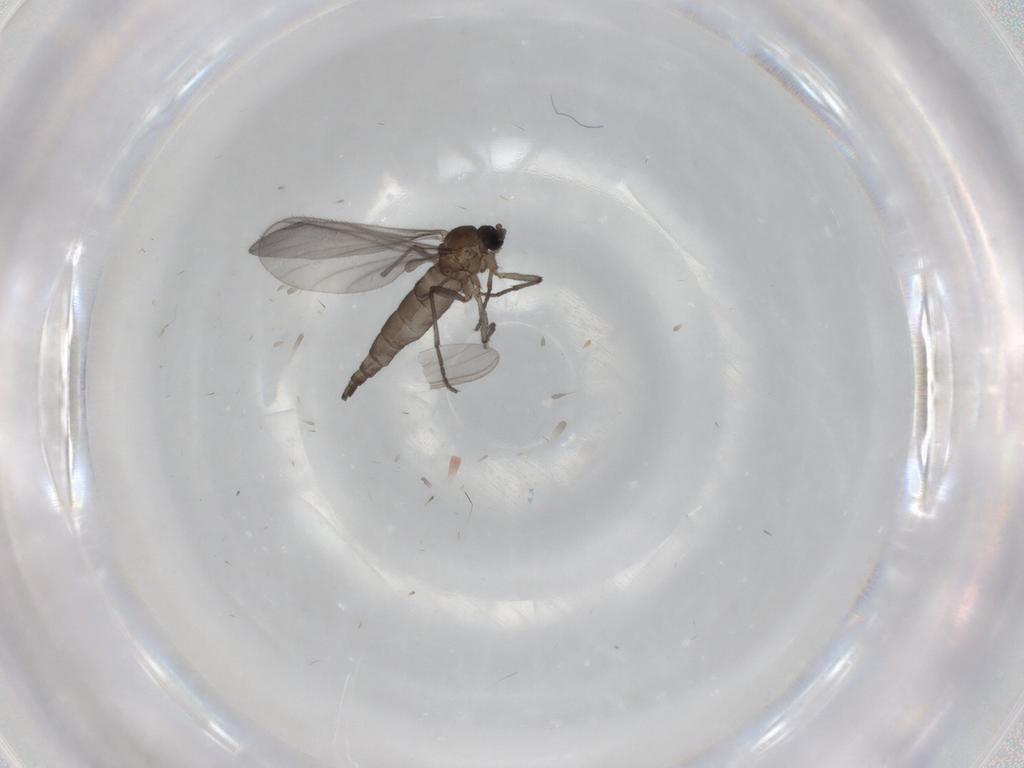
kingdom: Animalia
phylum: Arthropoda
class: Insecta
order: Diptera
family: Sciaridae
